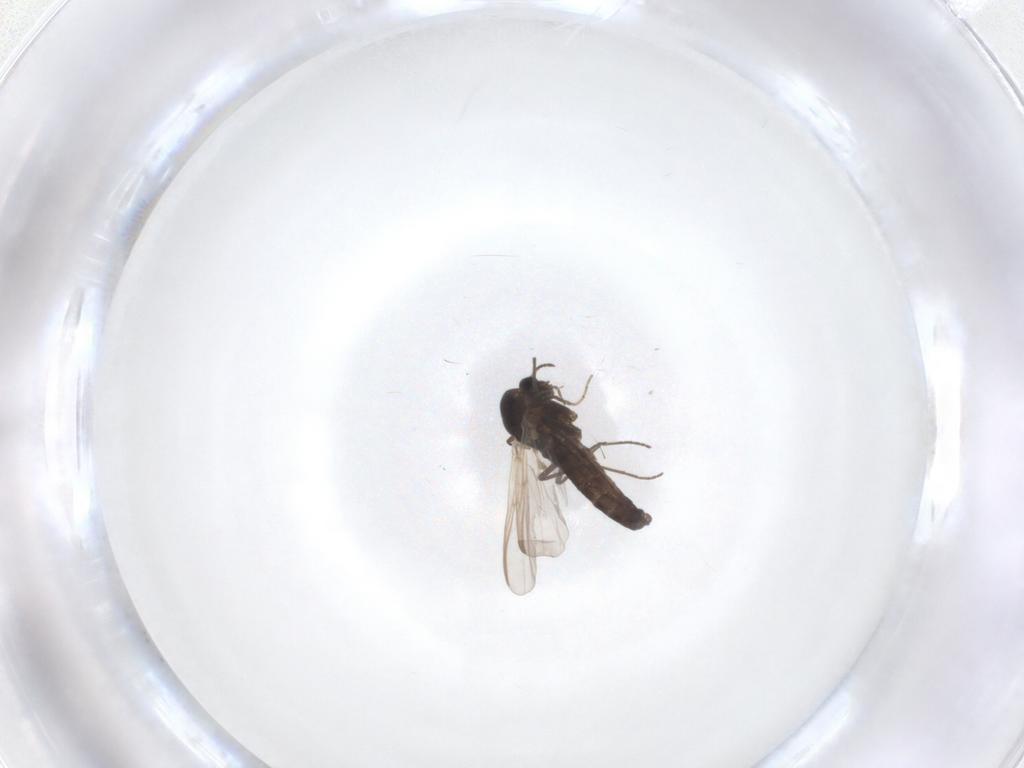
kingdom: Animalia
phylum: Arthropoda
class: Insecta
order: Diptera
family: Chironomidae
